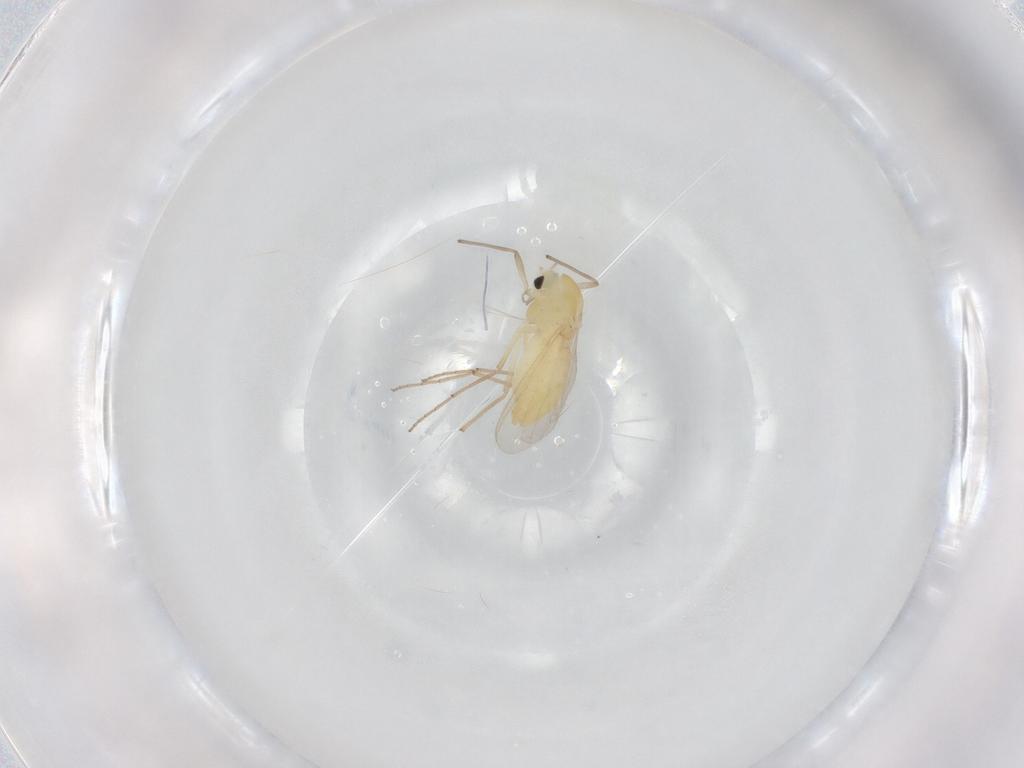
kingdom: Animalia
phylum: Arthropoda
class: Insecta
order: Diptera
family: Chironomidae
